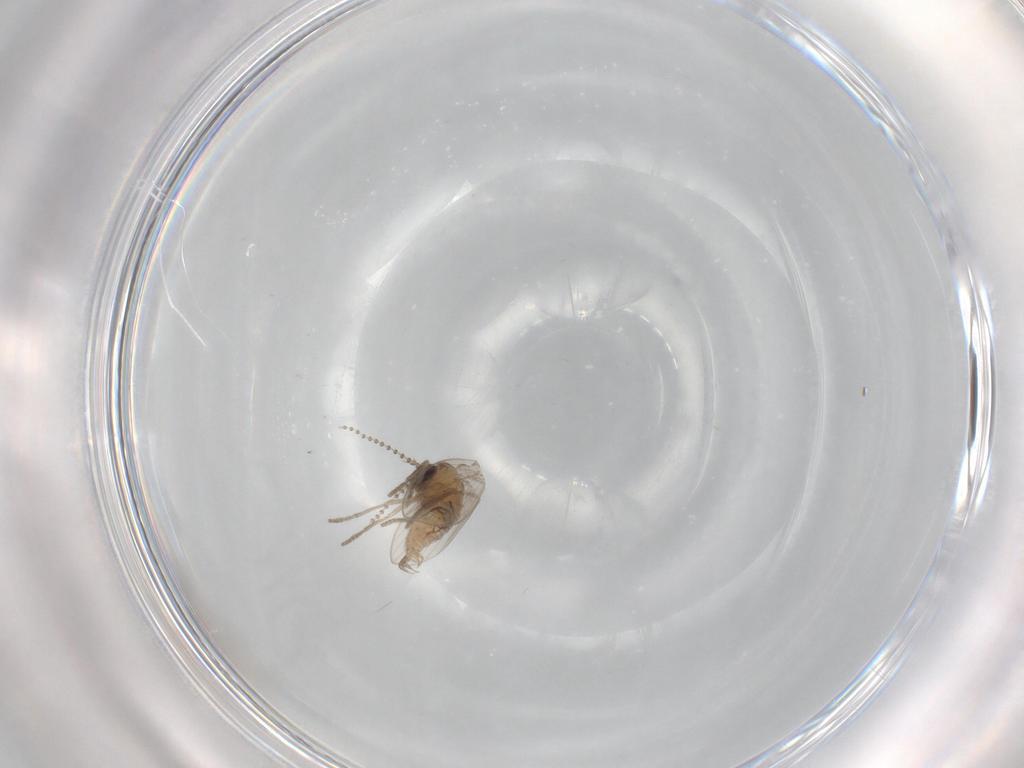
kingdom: Animalia
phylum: Arthropoda
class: Insecta
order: Diptera
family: Psychodidae
